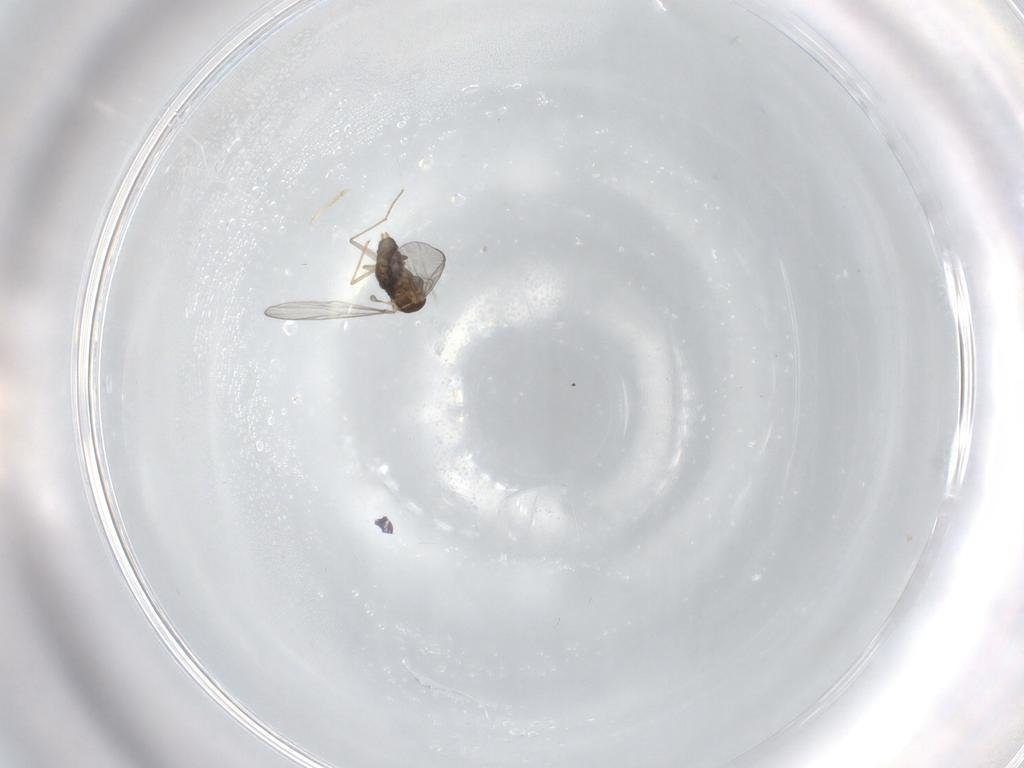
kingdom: Animalia
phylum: Arthropoda
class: Insecta
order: Diptera
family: Chironomidae
